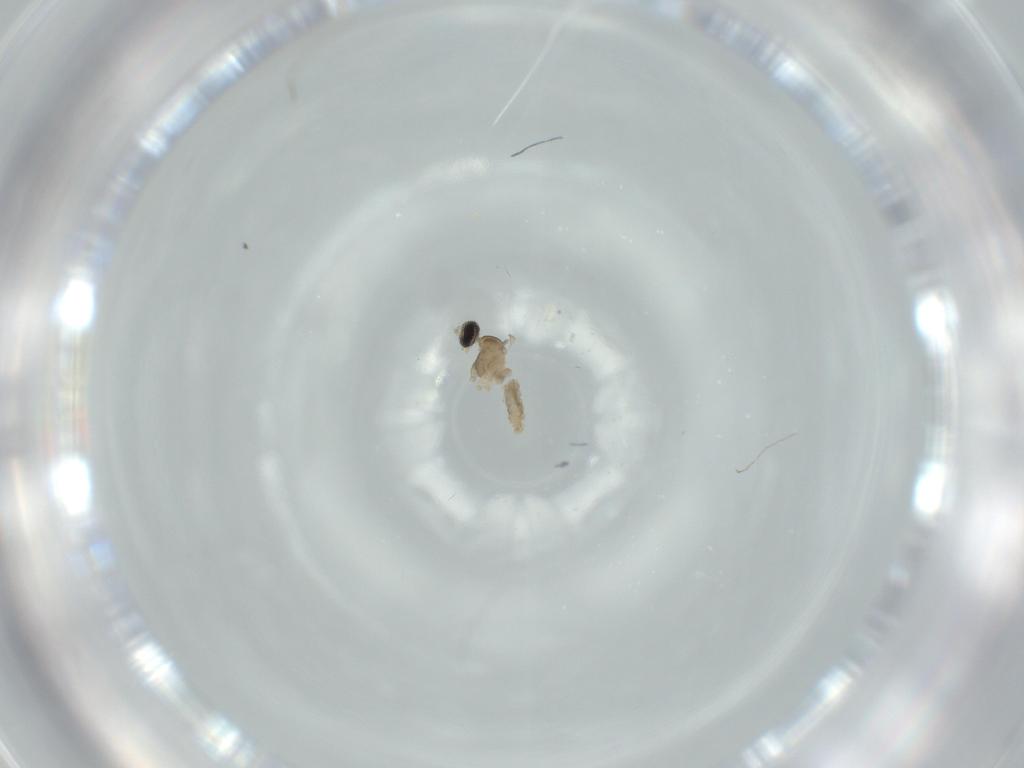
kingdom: Animalia
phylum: Arthropoda
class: Insecta
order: Diptera
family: Cecidomyiidae
